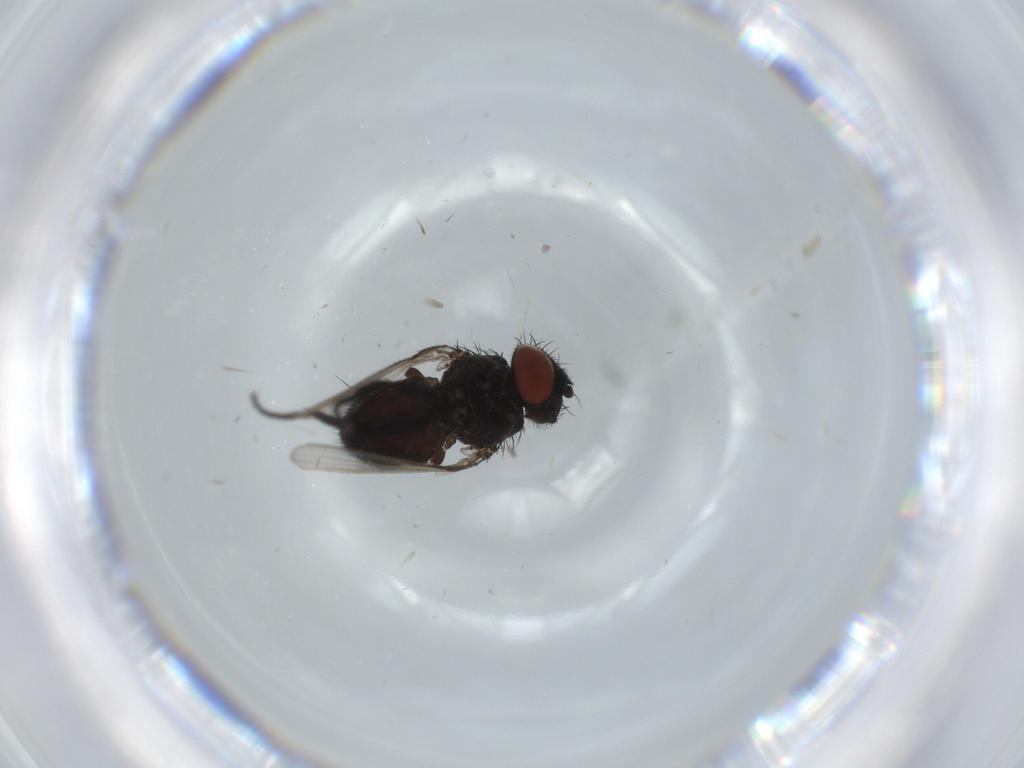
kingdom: Animalia
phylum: Arthropoda
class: Insecta
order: Diptera
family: Milichiidae
